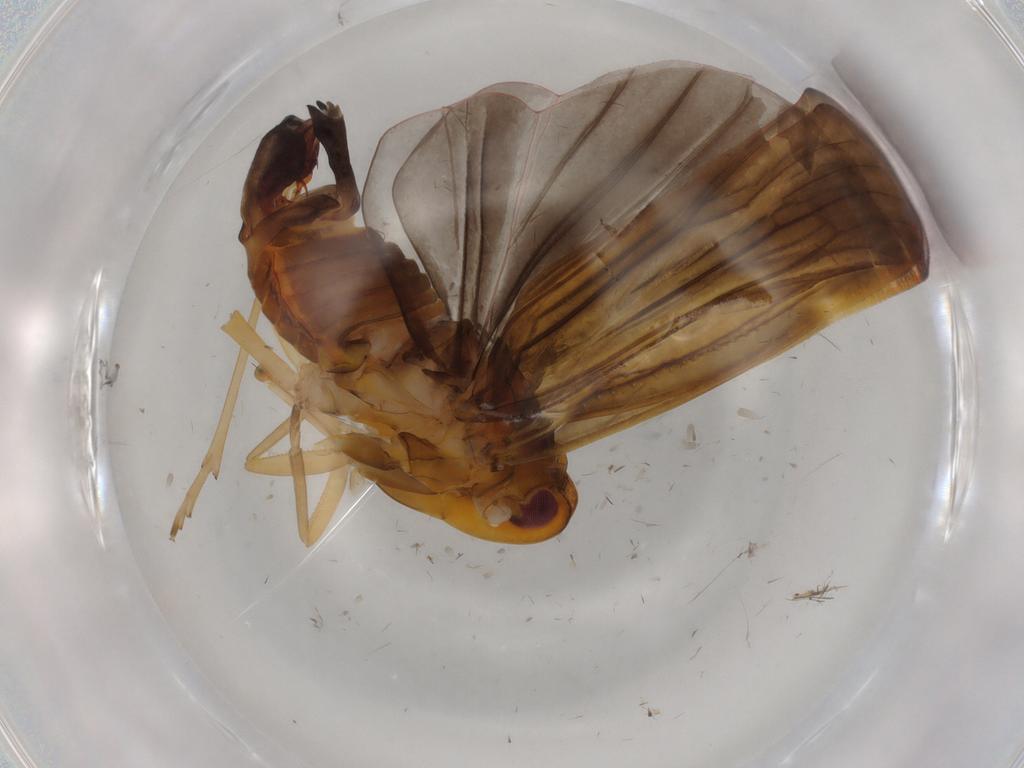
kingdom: Animalia
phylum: Arthropoda
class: Insecta
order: Hemiptera
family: Derbidae
